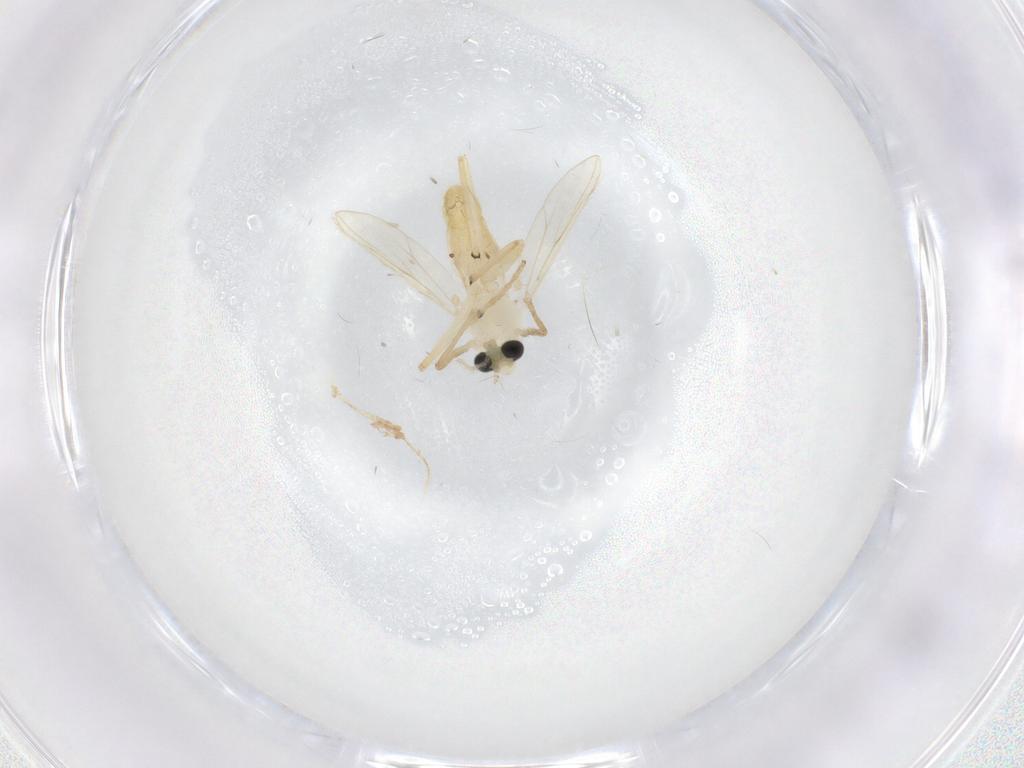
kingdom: Animalia
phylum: Arthropoda
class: Insecta
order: Diptera
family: Chironomidae
